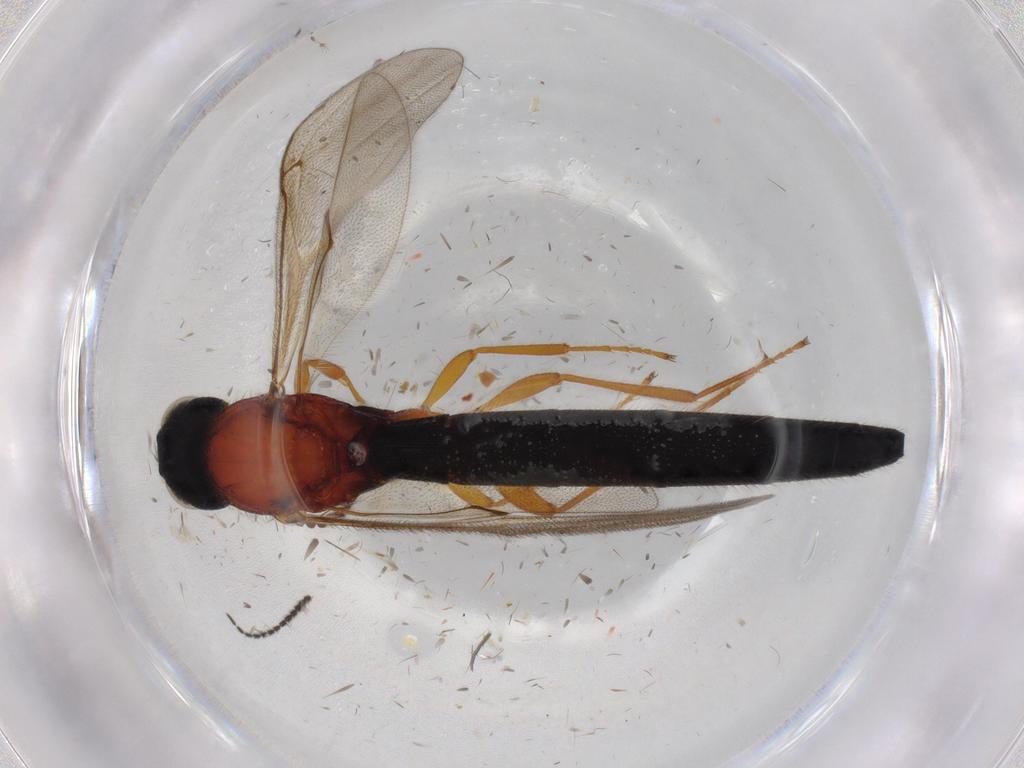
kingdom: Animalia
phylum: Arthropoda
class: Insecta
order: Hymenoptera
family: Scelionidae
